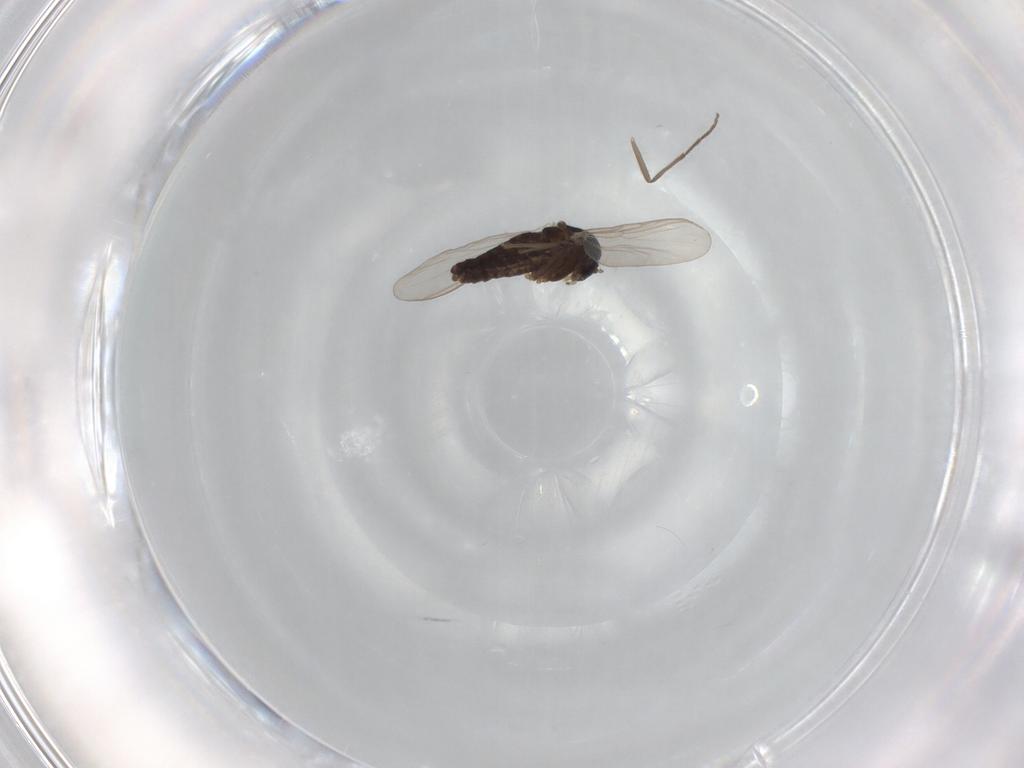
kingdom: Animalia
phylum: Arthropoda
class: Insecta
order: Diptera
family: Chironomidae
